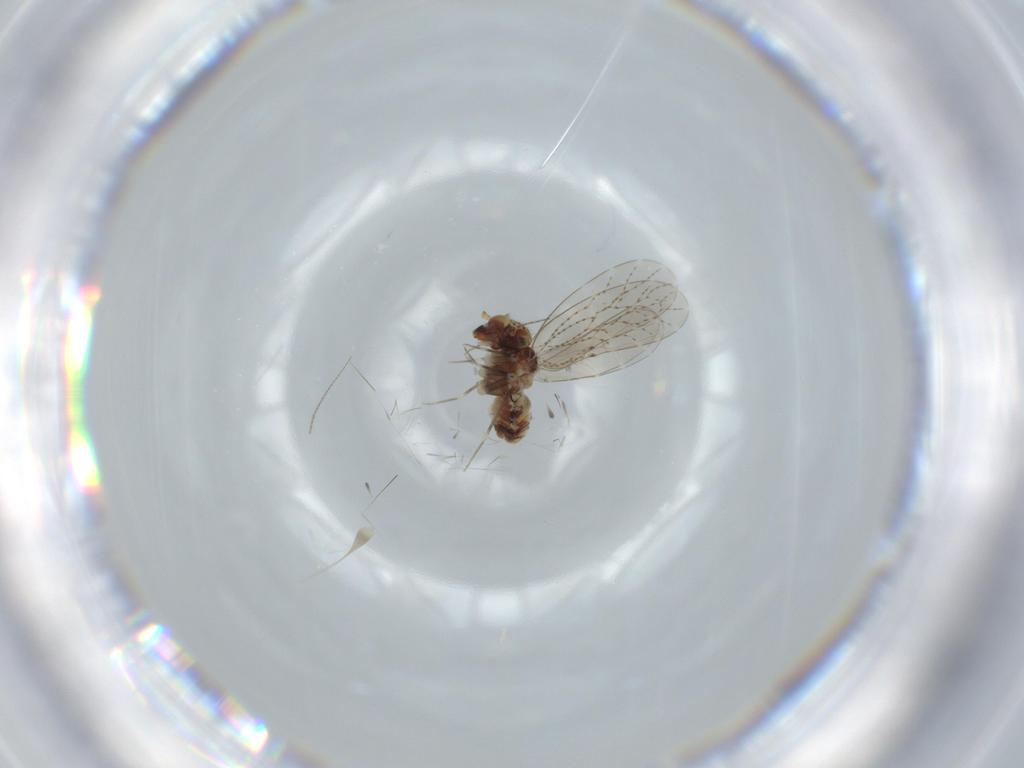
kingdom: Animalia
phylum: Arthropoda
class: Insecta
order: Psocodea
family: Musapsocidae
